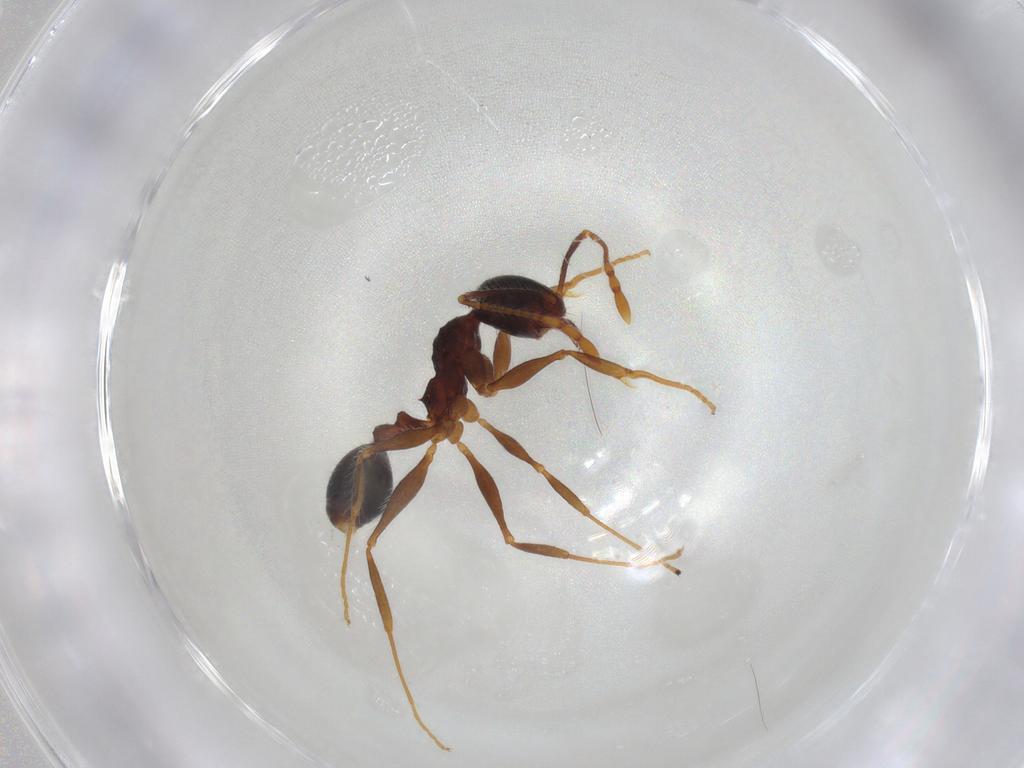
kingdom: Animalia
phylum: Arthropoda
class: Insecta
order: Hymenoptera
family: Formicidae
